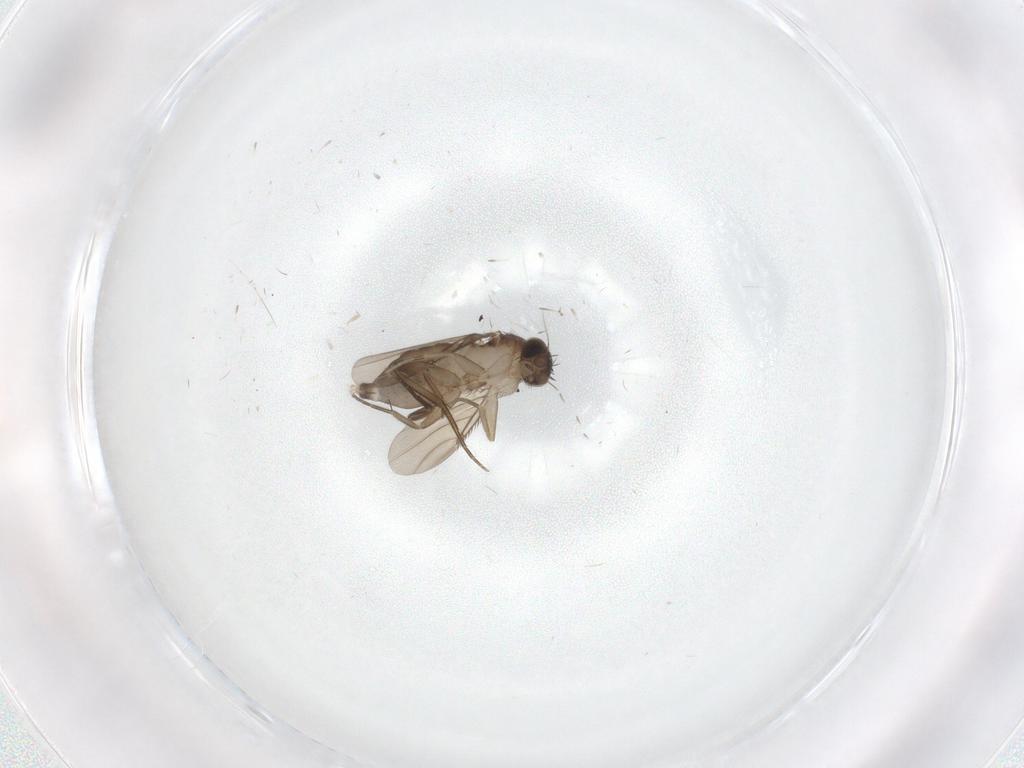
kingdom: Animalia
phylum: Arthropoda
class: Insecta
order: Diptera
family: Phoridae
